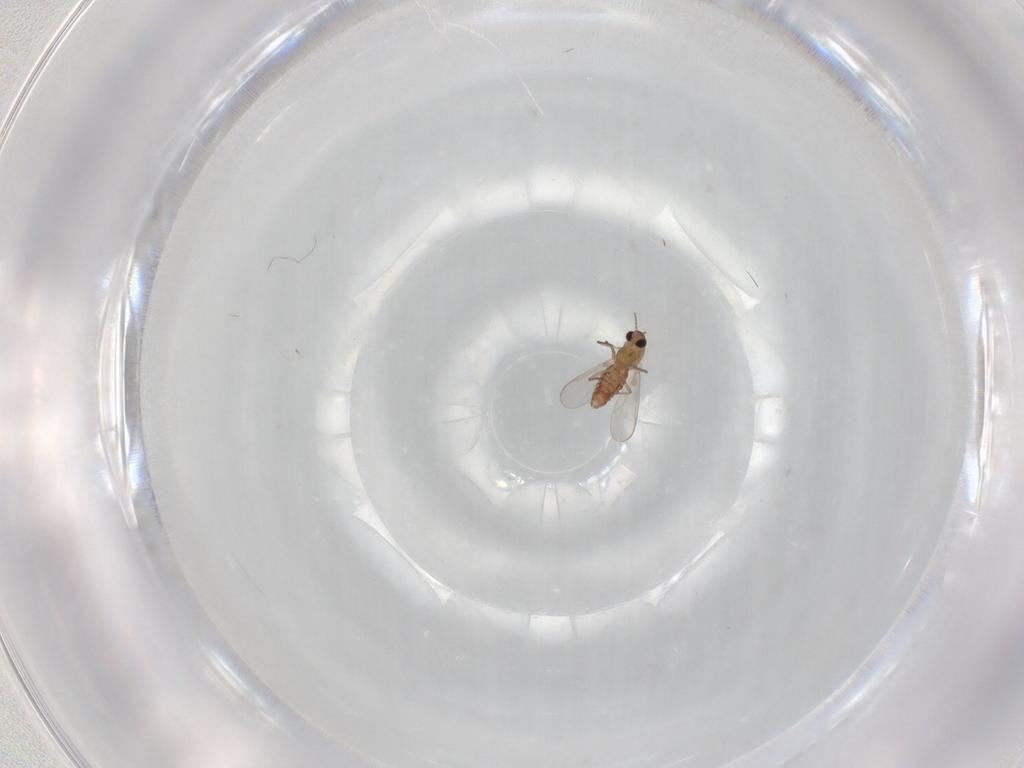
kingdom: Animalia
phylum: Arthropoda
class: Insecta
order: Diptera
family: Chironomidae
